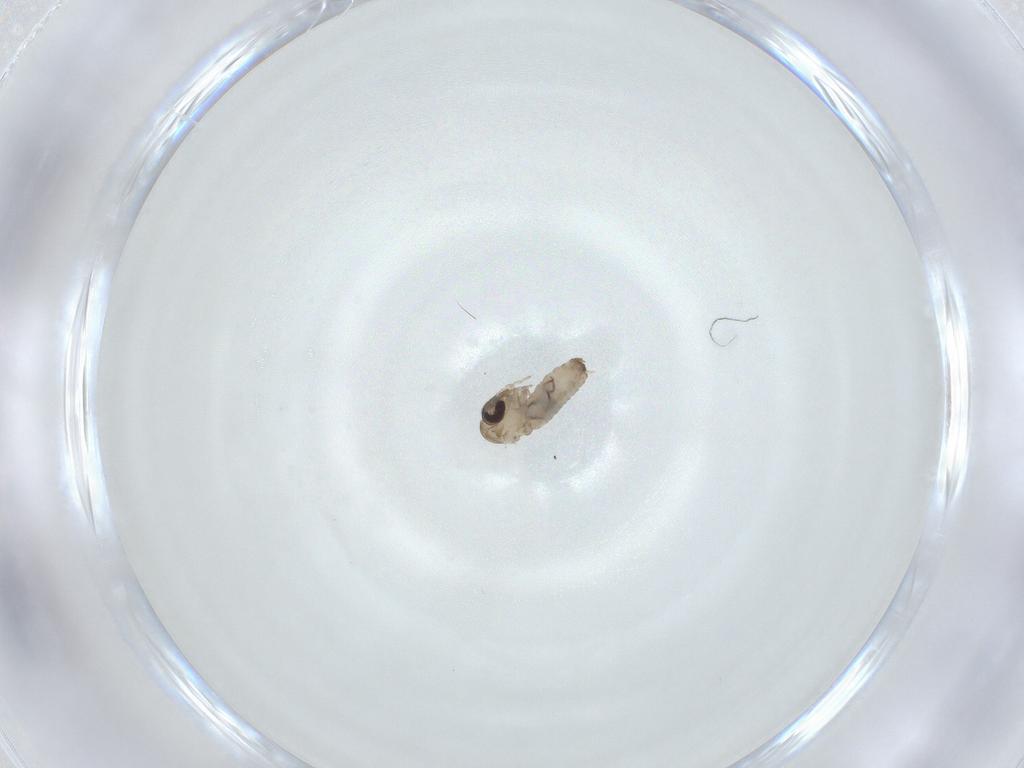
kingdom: Animalia
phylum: Arthropoda
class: Insecta
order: Diptera
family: Psychodidae
